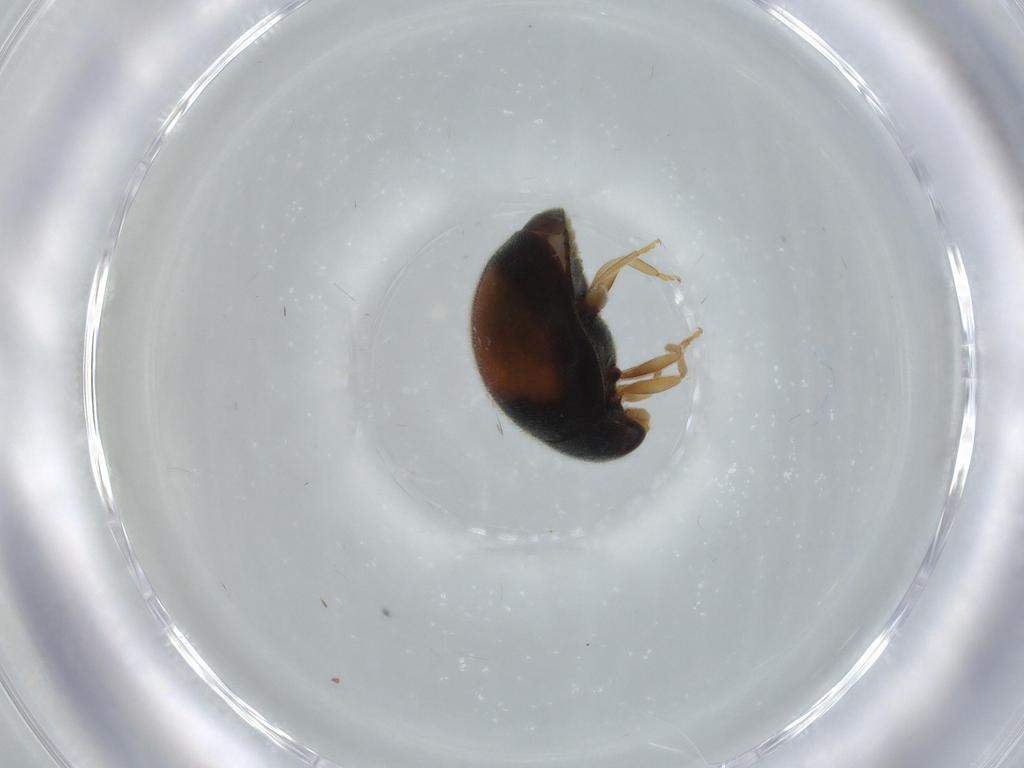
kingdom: Animalia
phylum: Arthropoda
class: Insecta
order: Coleoptera
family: Coccinellidae
